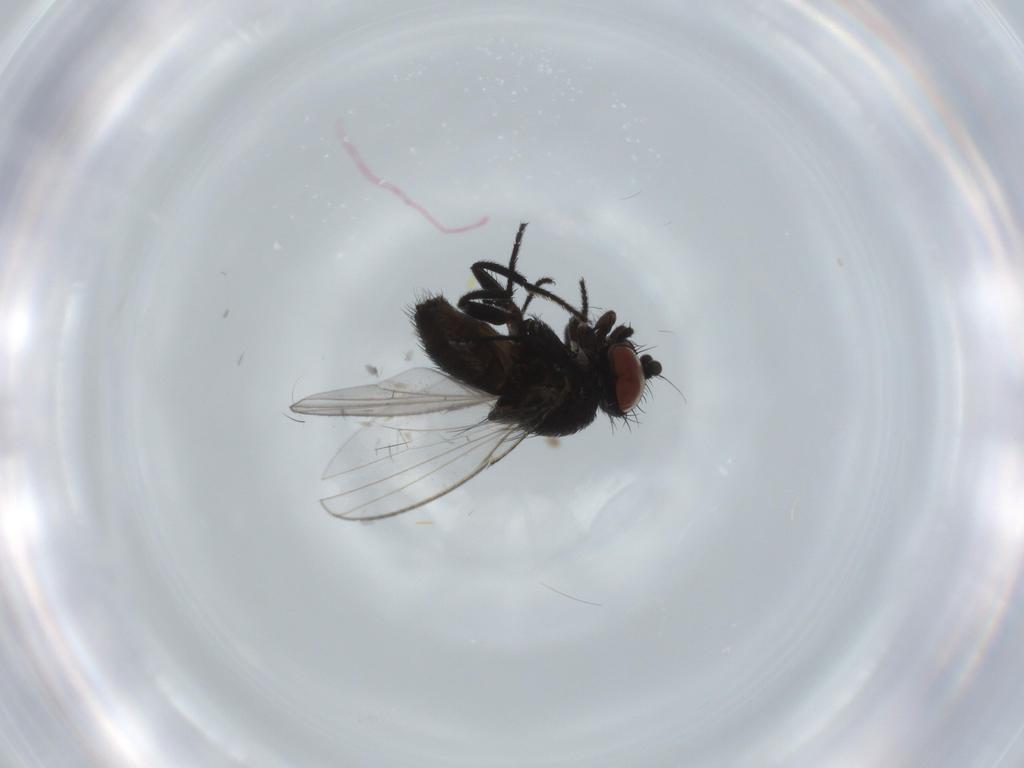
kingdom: Animalia
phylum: Arthropoda
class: Insecta
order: Diptera
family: Milichiidae
